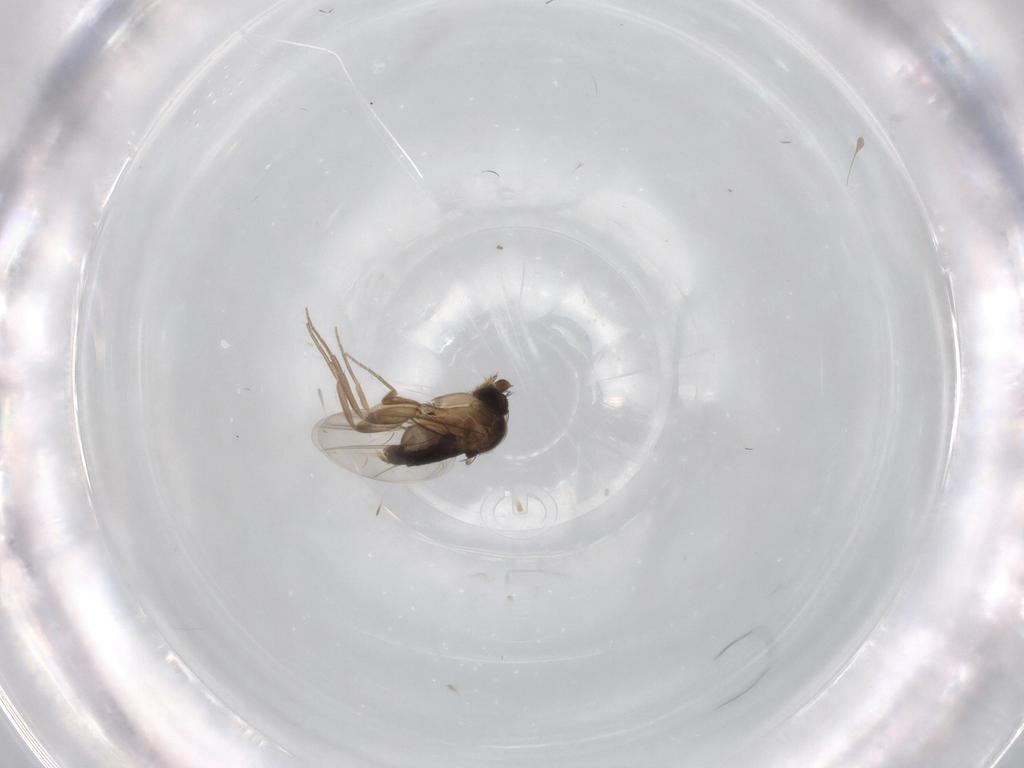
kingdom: Animalia
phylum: Arthropoda
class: Insecta
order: Diptera
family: Phoridae
